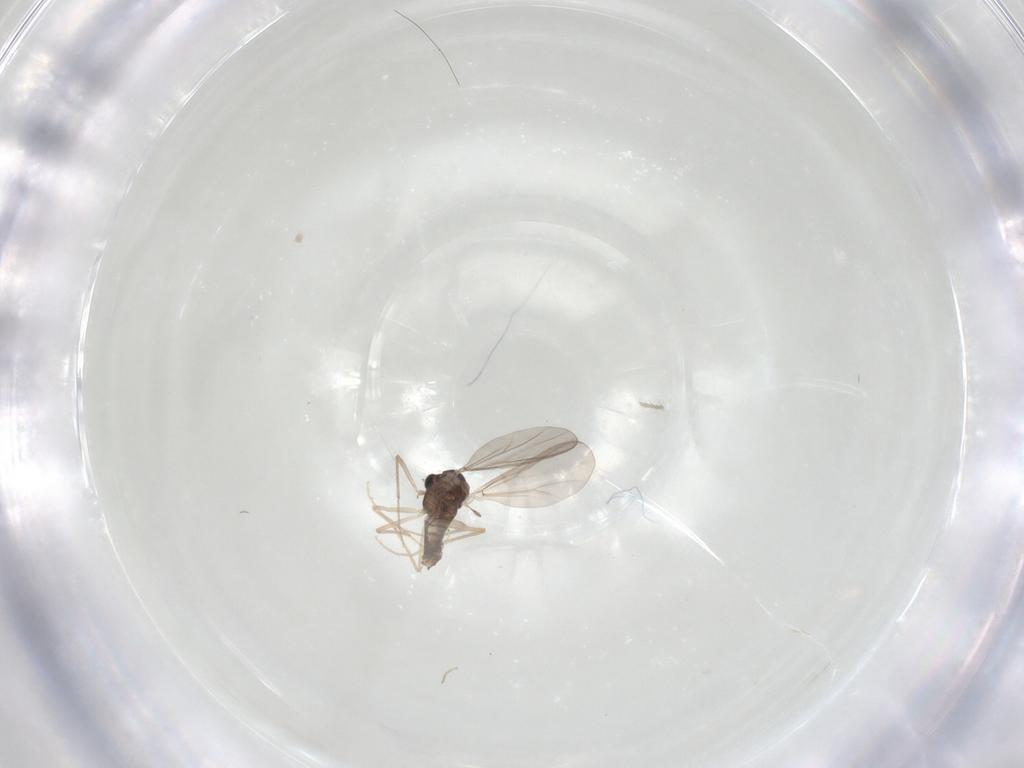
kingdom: Animalia
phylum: Arthropoda
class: Insecta
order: Diptera
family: Chironomidae
